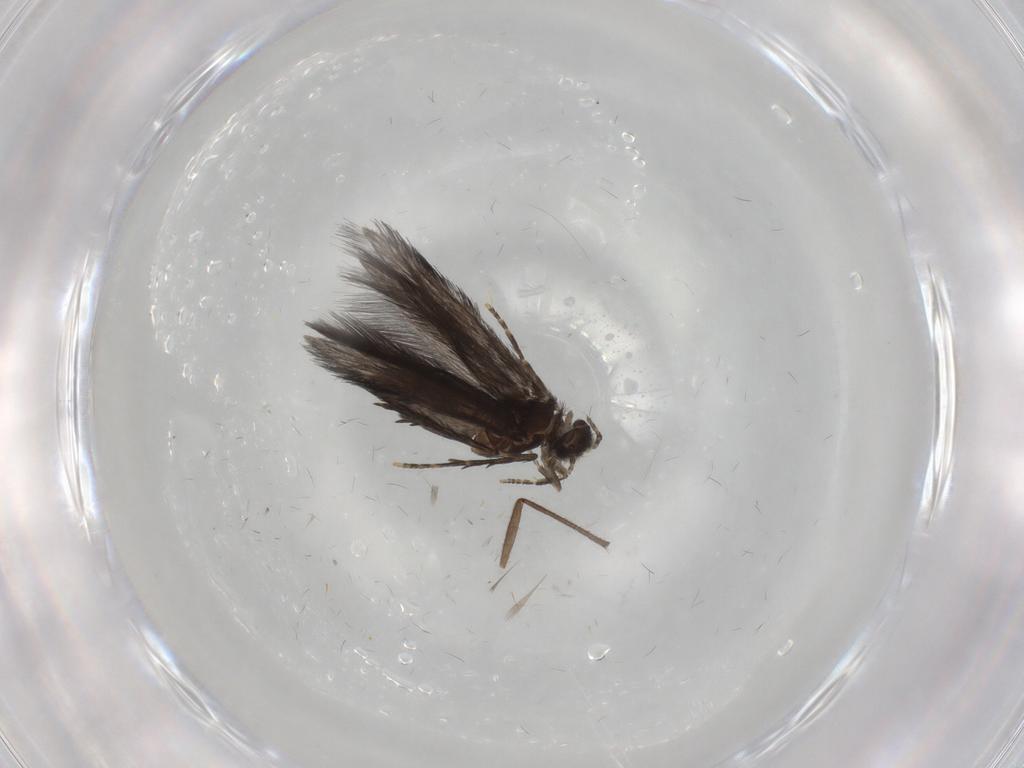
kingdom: Animalia
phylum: Arthropoda
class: Insecta
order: Trichoptera
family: Hydroptilidae
